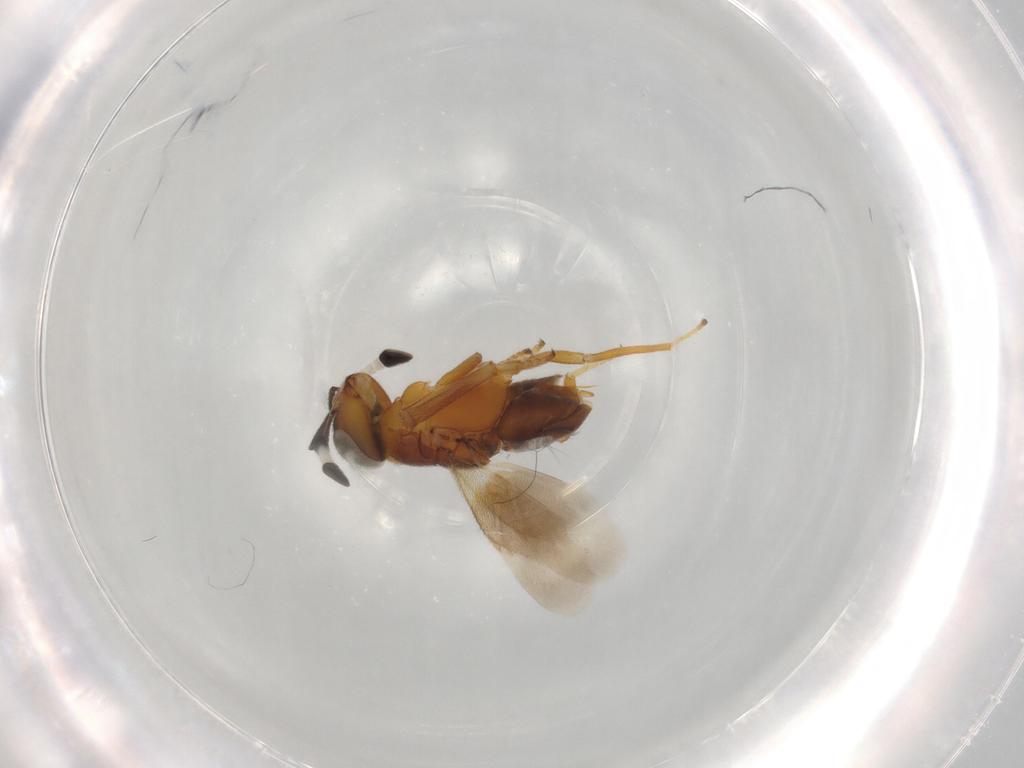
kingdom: Animalia
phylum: Arthropoda
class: Insecta
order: Hymenoptera
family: Encyrtidae
